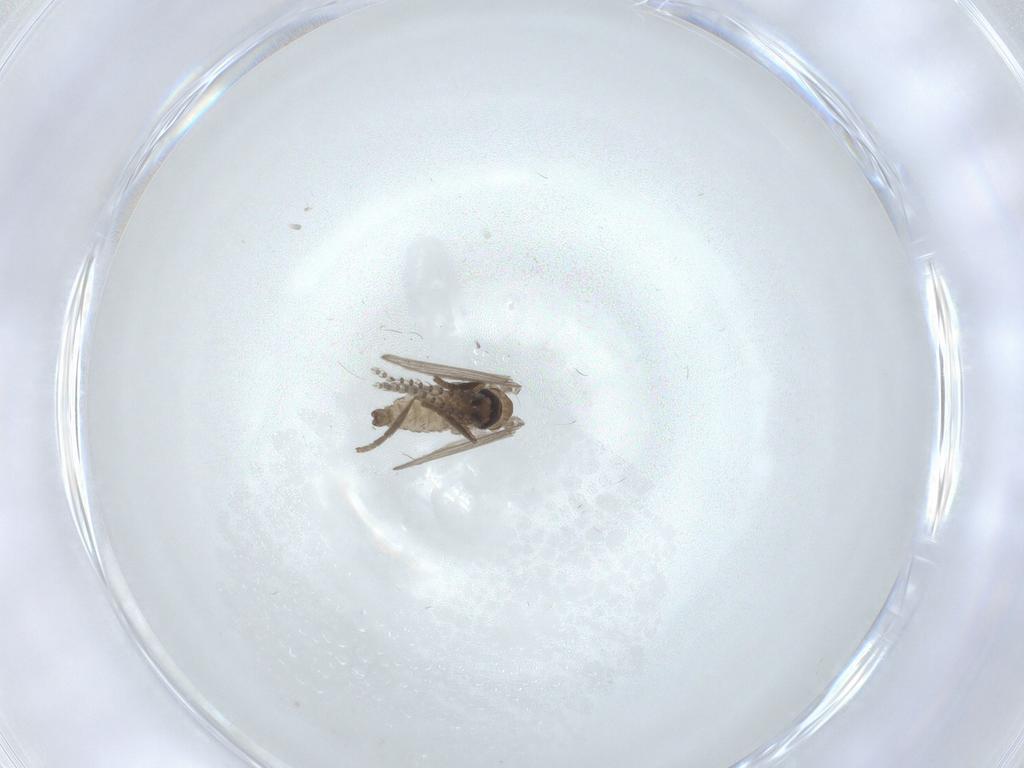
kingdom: Animalia
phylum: Arthropoda
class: Insecta
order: Diptera
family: Psychodidae
